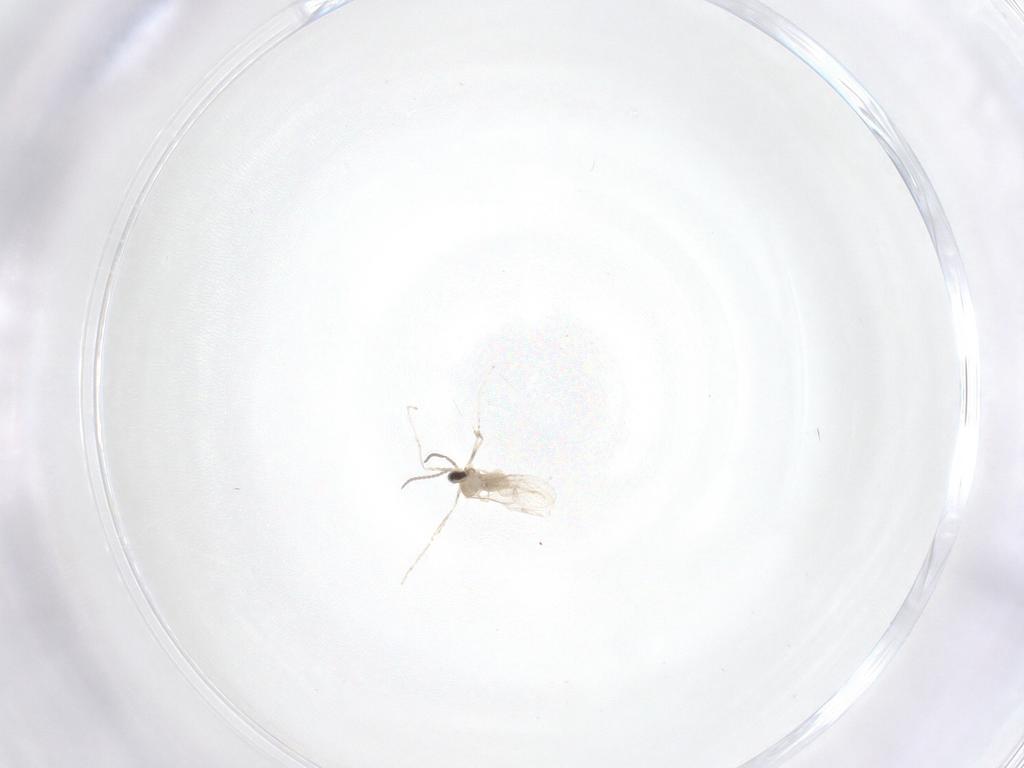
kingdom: Animalia
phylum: Arthropoda
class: Insecta
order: Diptera
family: Cecidomyiidae
